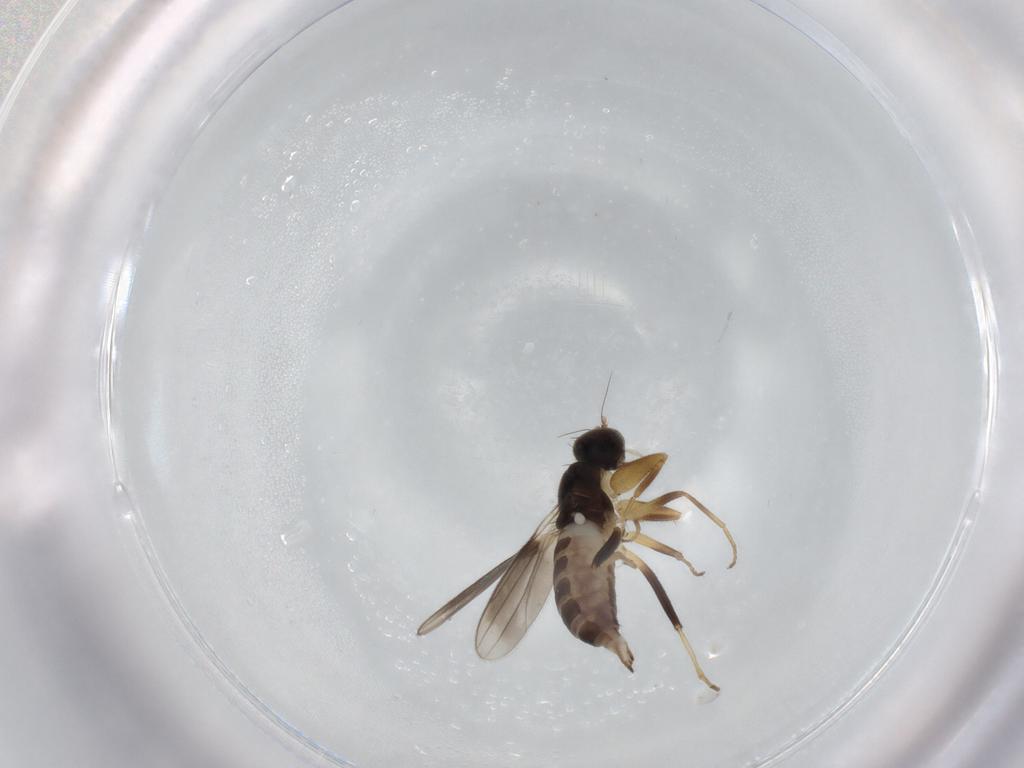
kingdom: Animalia
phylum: Arthropoda
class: Insecta
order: Diptera
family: Hybotidae
